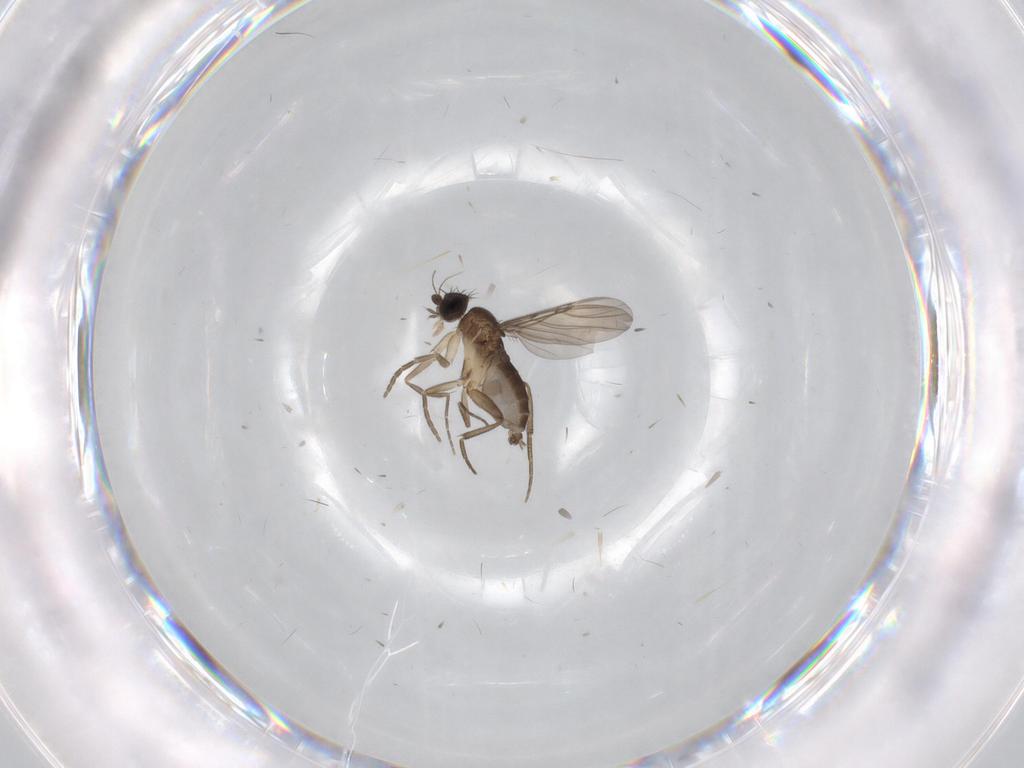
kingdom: Animalia
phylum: Arthropoda
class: Insecta
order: Diptera
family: Phoridae
